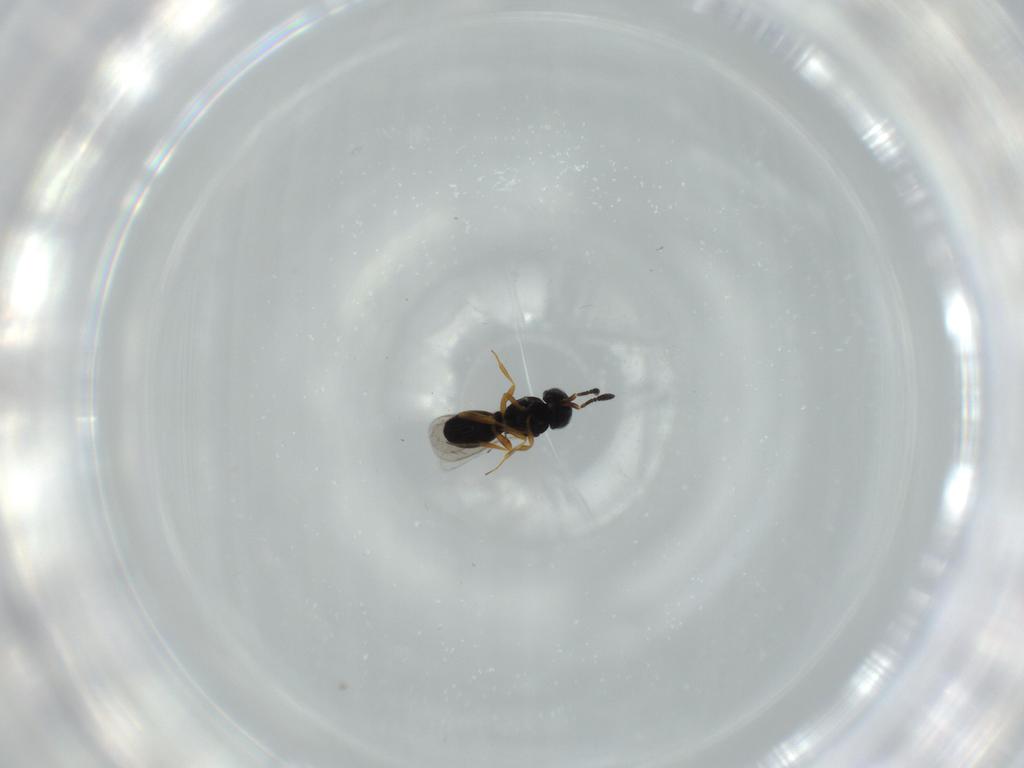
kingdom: Animalia
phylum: Arthropoda
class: Insecta
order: Hymenoptera
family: Scelionidae
